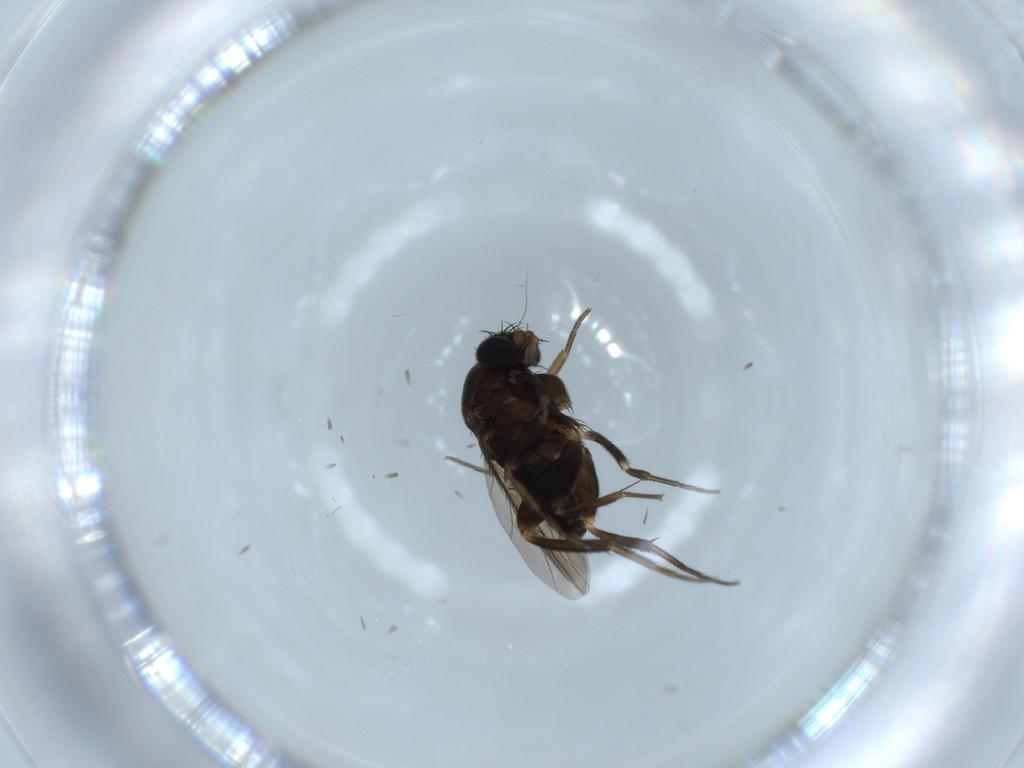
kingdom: Animalia
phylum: Arthropoda
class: Insecta
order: Diptera
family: Cecidomyiidae
